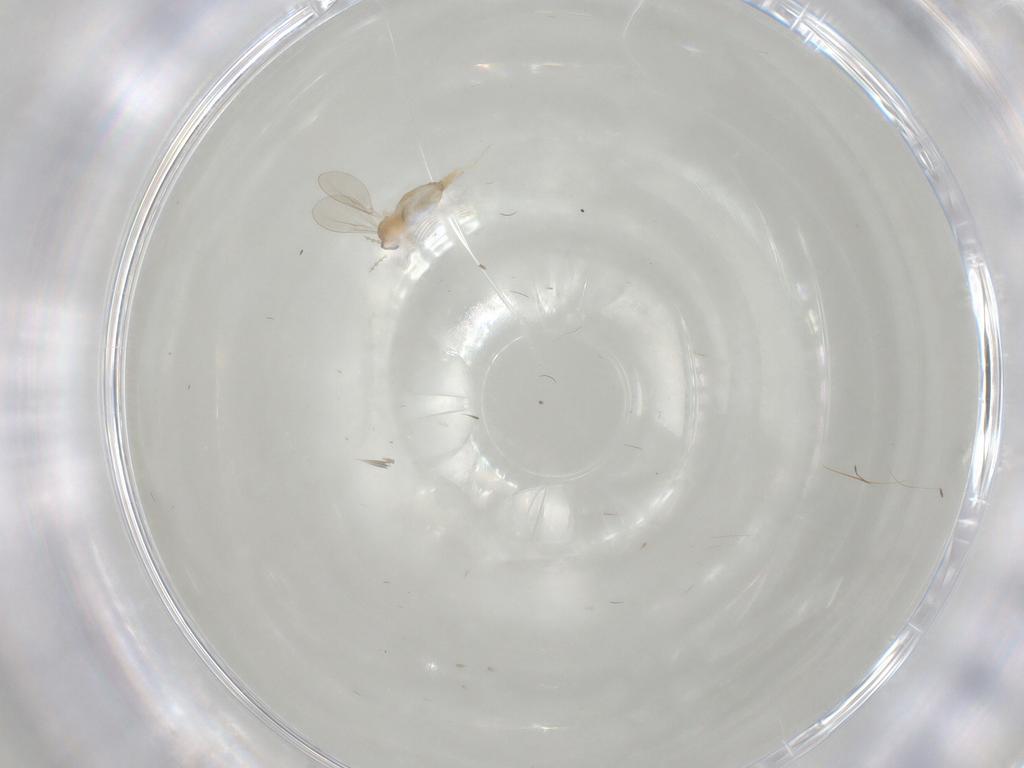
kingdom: Animalia
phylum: Arthropoda
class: Insecta
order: Diptera
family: Cecidomyiidae
